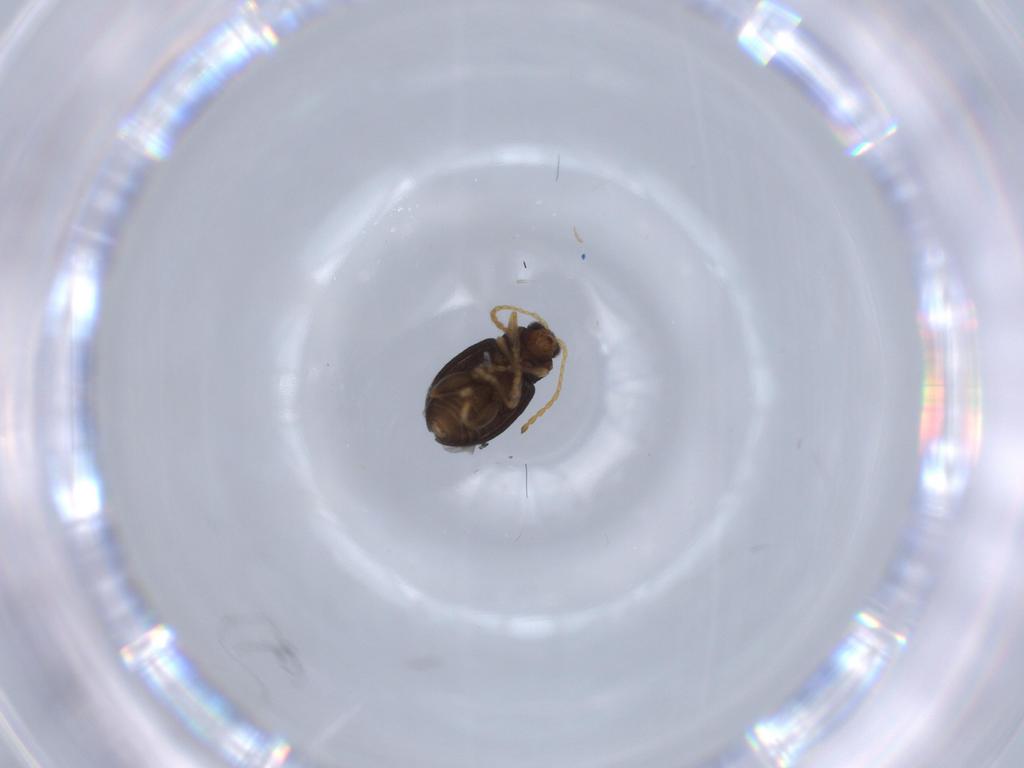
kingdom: Animalia
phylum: Arthropoda
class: Insecta
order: Coleoptera
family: Chrysomelidae
